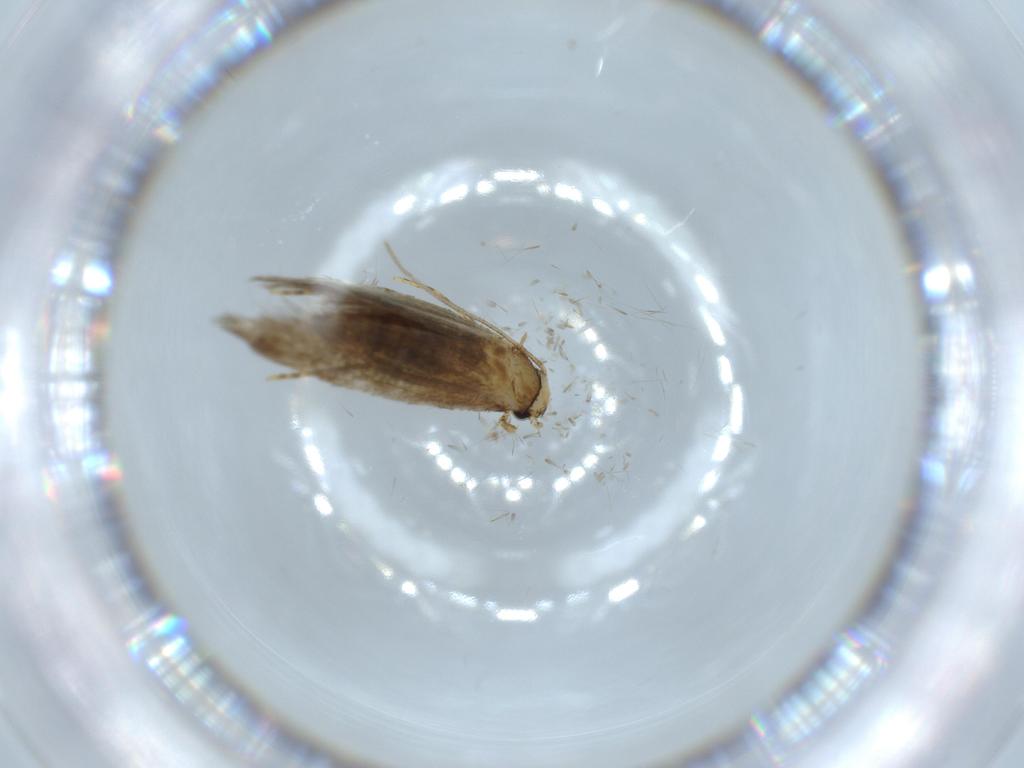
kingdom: Animalia
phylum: Arthropoda
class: Insecta
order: Lepidoptera
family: Tineidae
